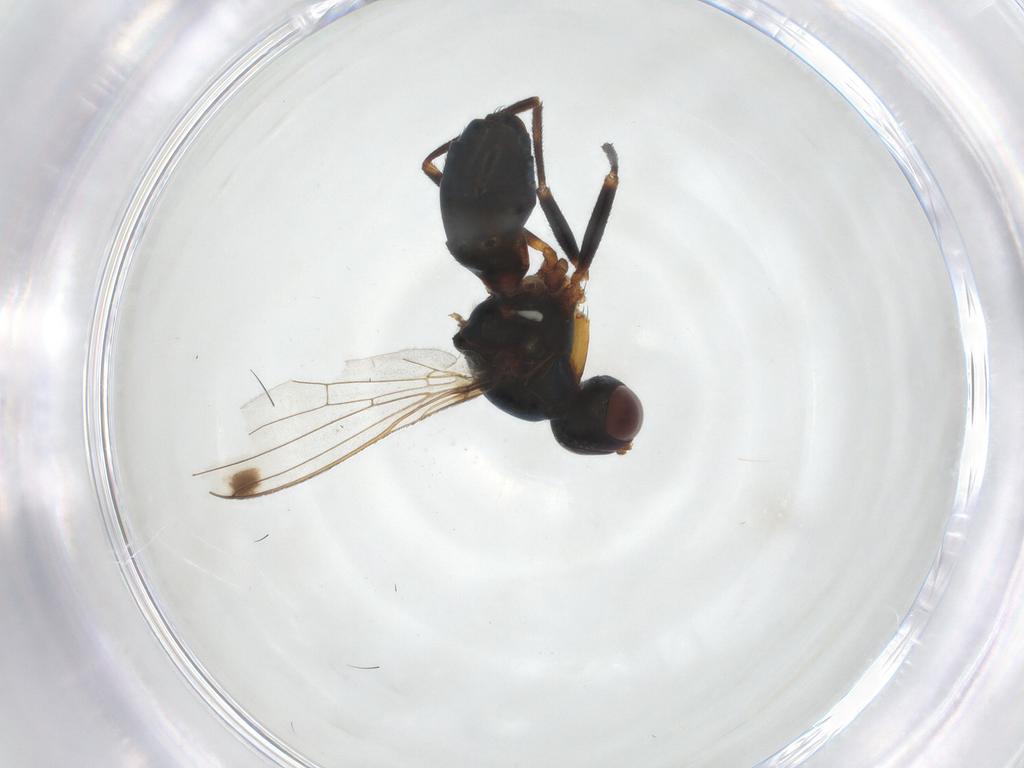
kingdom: Animalia
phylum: Arthropoda
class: Insecta
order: Diptera
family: Sepsidae
